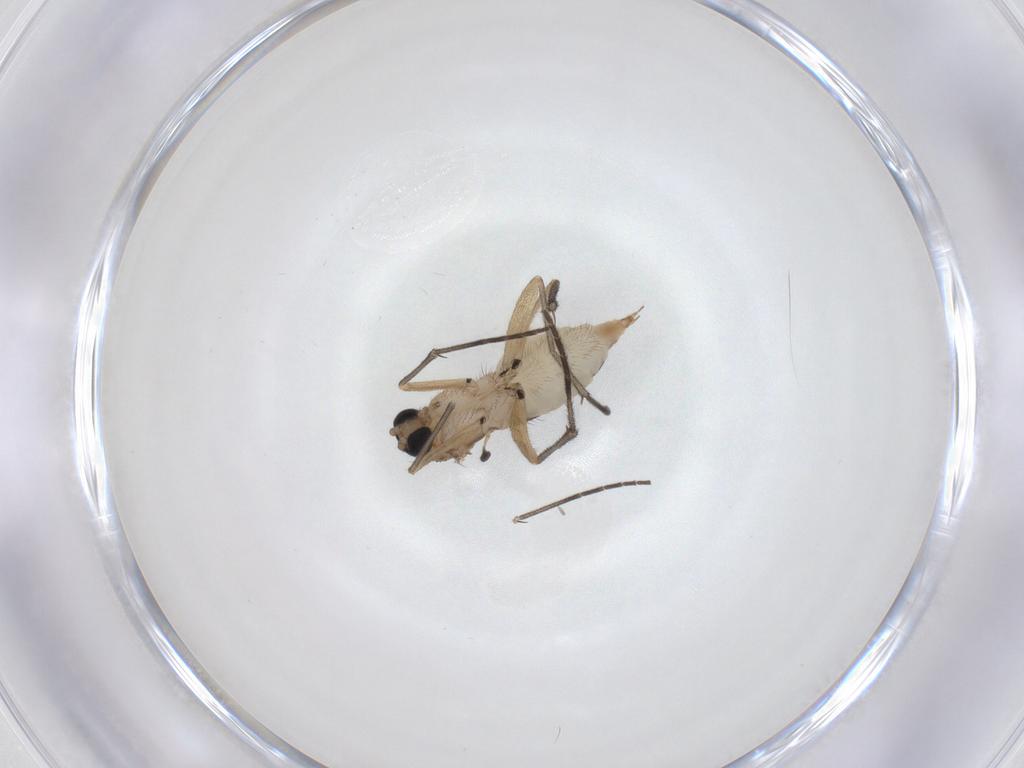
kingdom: Animalia
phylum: Arthropoda
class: Insecta
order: Diptera
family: Sciaridae
